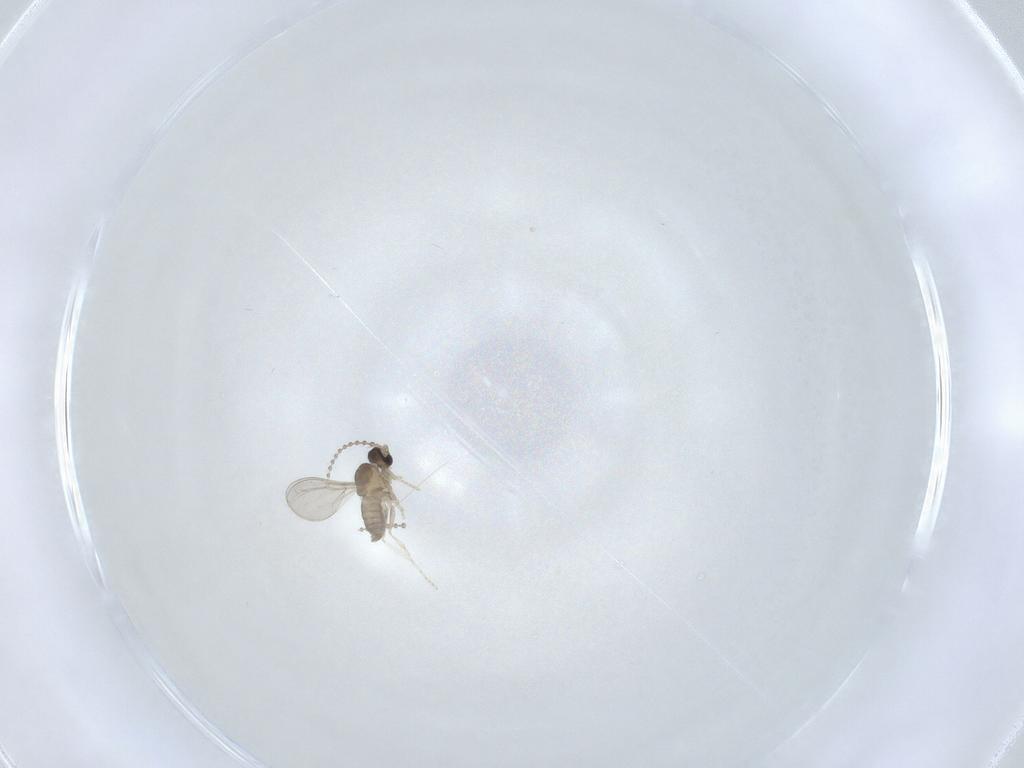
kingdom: Animalia
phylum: Arthropoda
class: Insecta
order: Diptera
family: Cecidomyiidae
